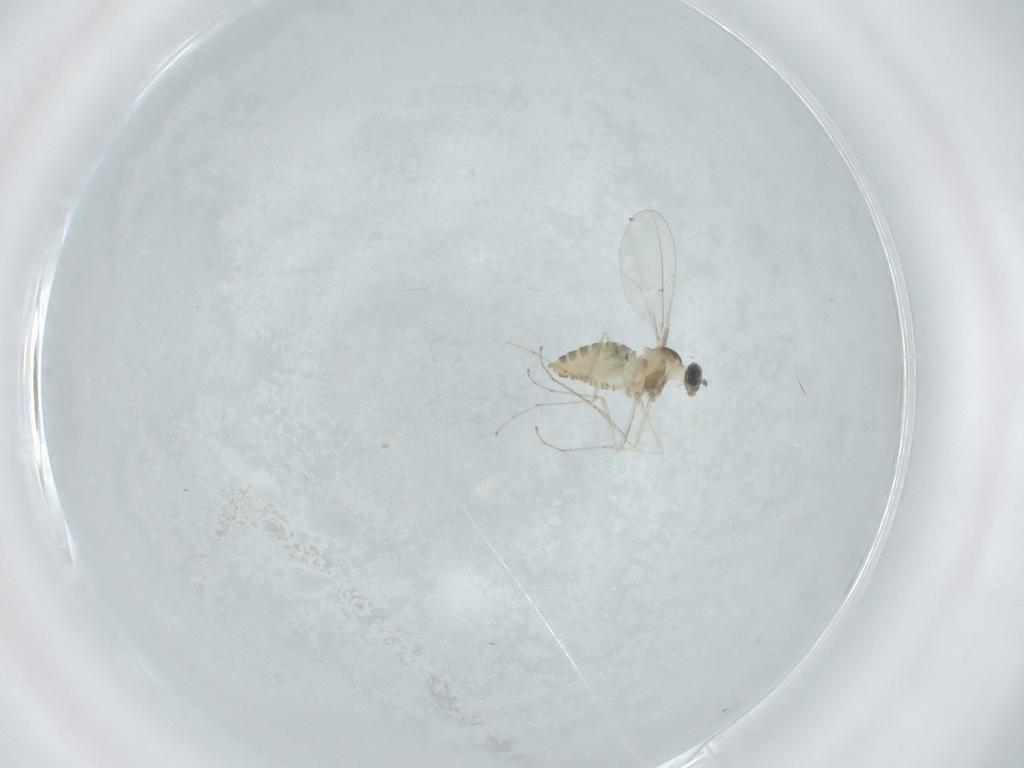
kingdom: Animalia
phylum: Arthropoda
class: Insecta
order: Diptera
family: Cecidomyiidae
